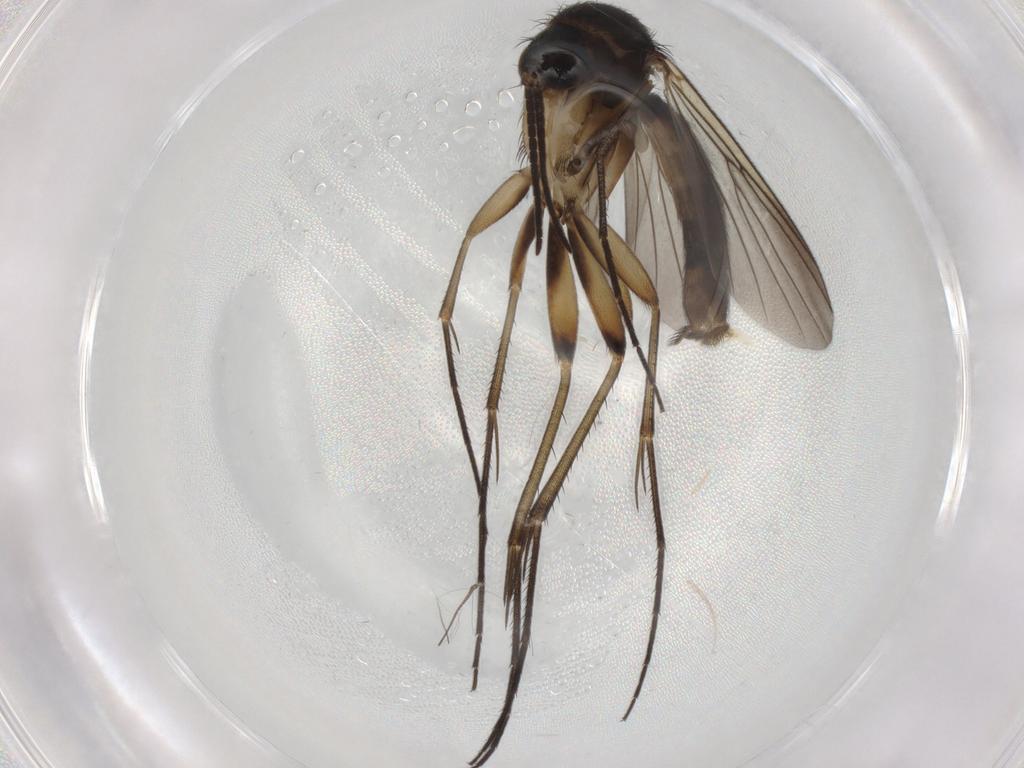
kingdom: Animalia
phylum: Arthropoda
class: Insecta
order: Diptera
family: Mycetophilidae
